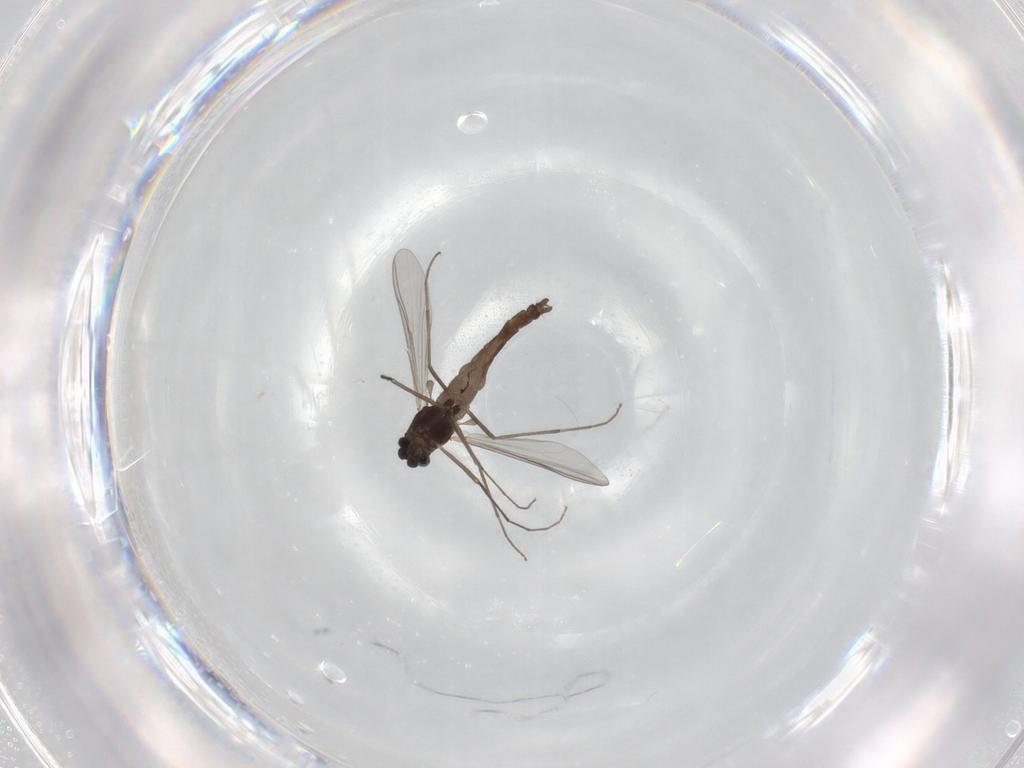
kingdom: Animalia
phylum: Arthropoda
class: Insecta
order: Diptera
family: Chironomidae
